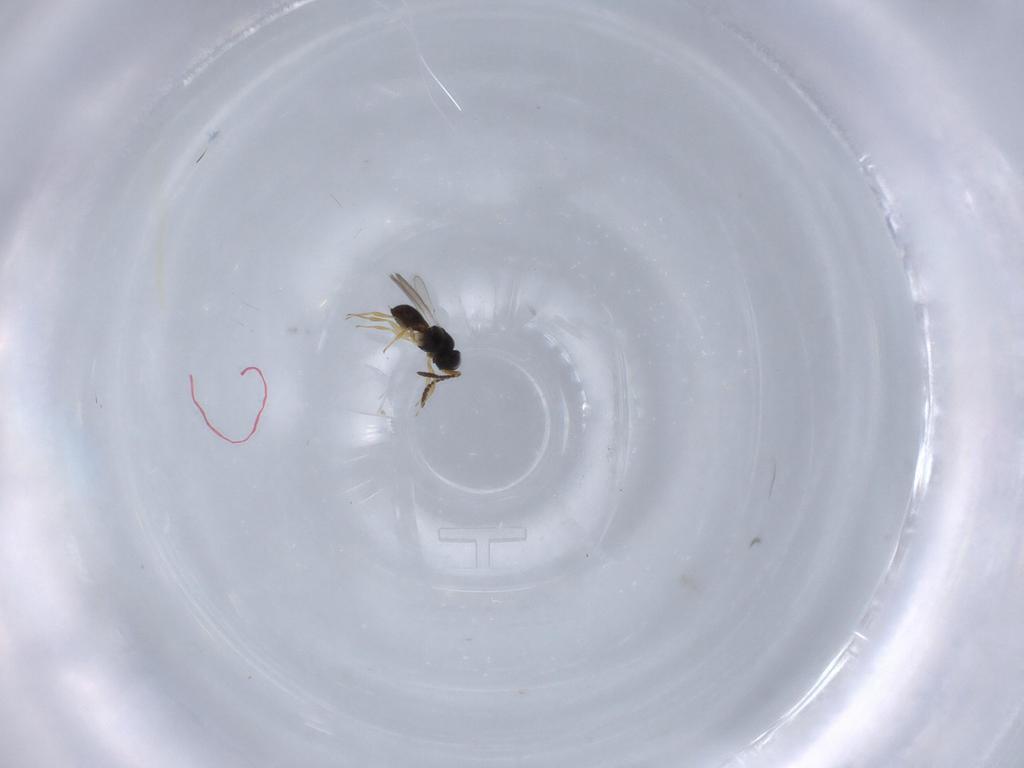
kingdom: Animalia
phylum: Arthropoda
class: Insecta
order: Hymenoptera
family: Scelionidae
